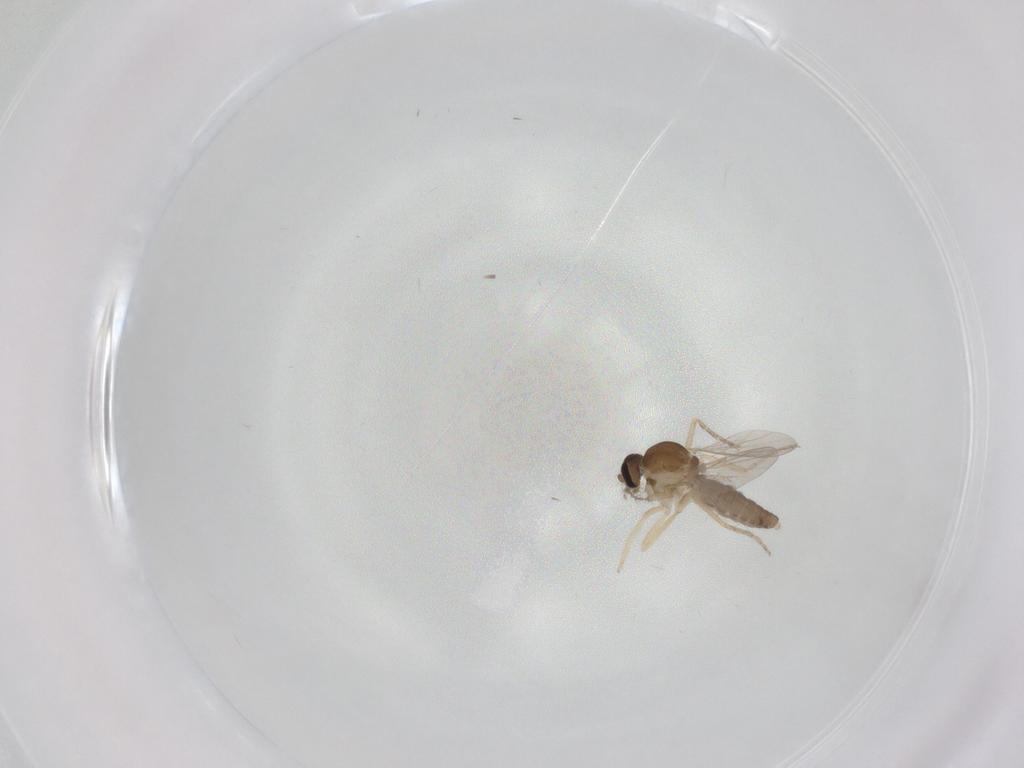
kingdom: Animalia
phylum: Arthropoda
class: Insecta
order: Diptera
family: Ceratopogonidae
